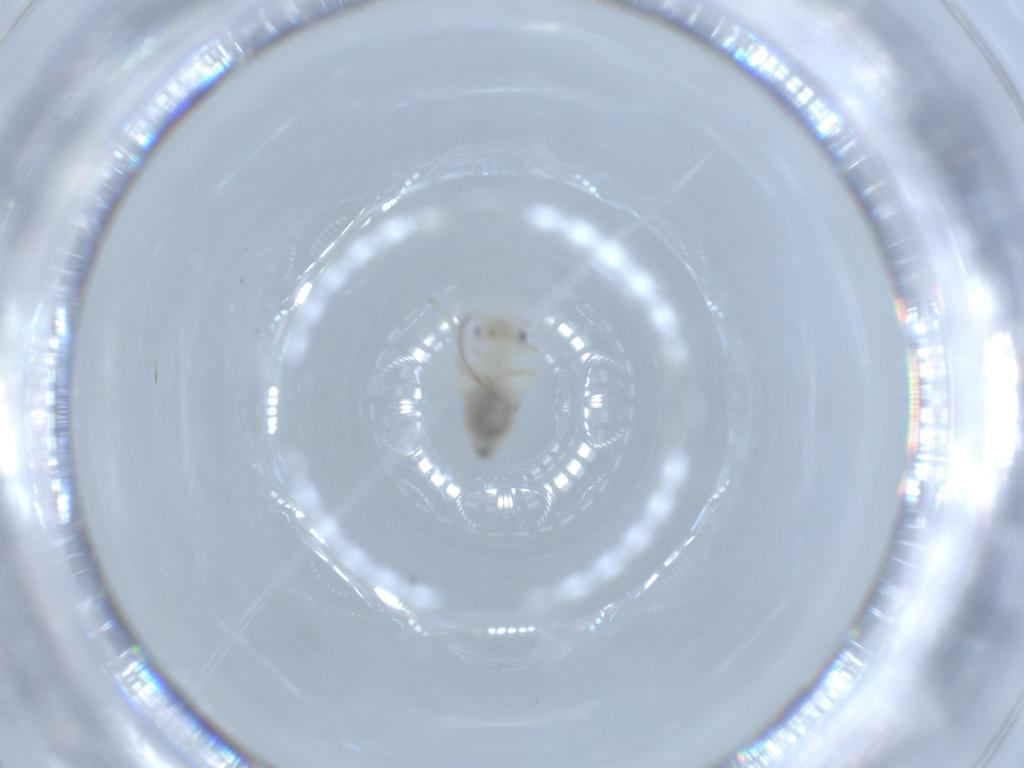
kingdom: Animalia
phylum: Arthropoda
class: Insecta
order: Psocodea
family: Caeciliusidae
